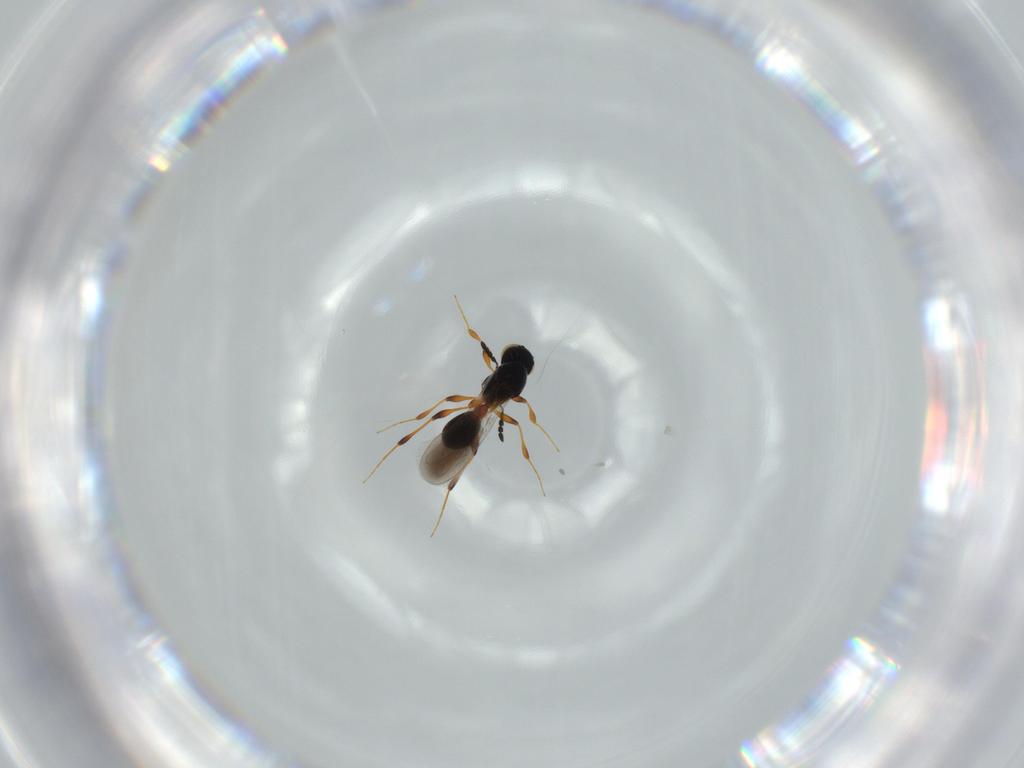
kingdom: Animalia
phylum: Arthropoda
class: Insecta
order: Hymenoptera
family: Platygastridae
